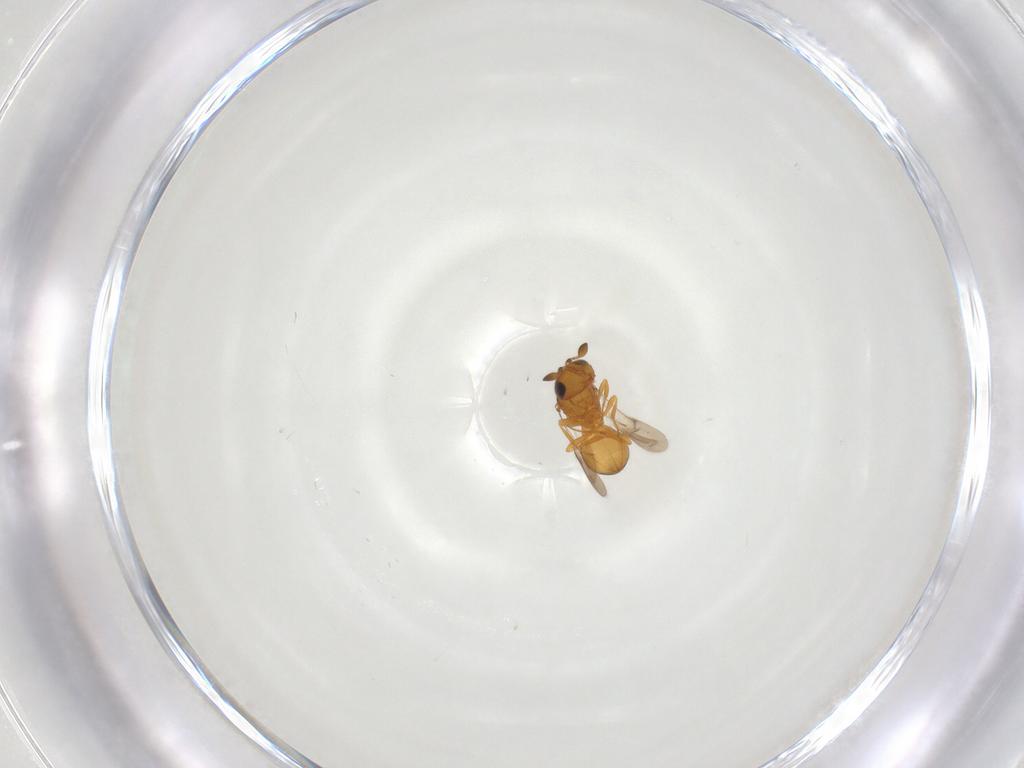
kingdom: Animalia
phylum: Arthropoda
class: Insecta
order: Hymenoptera
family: Scelionidae
